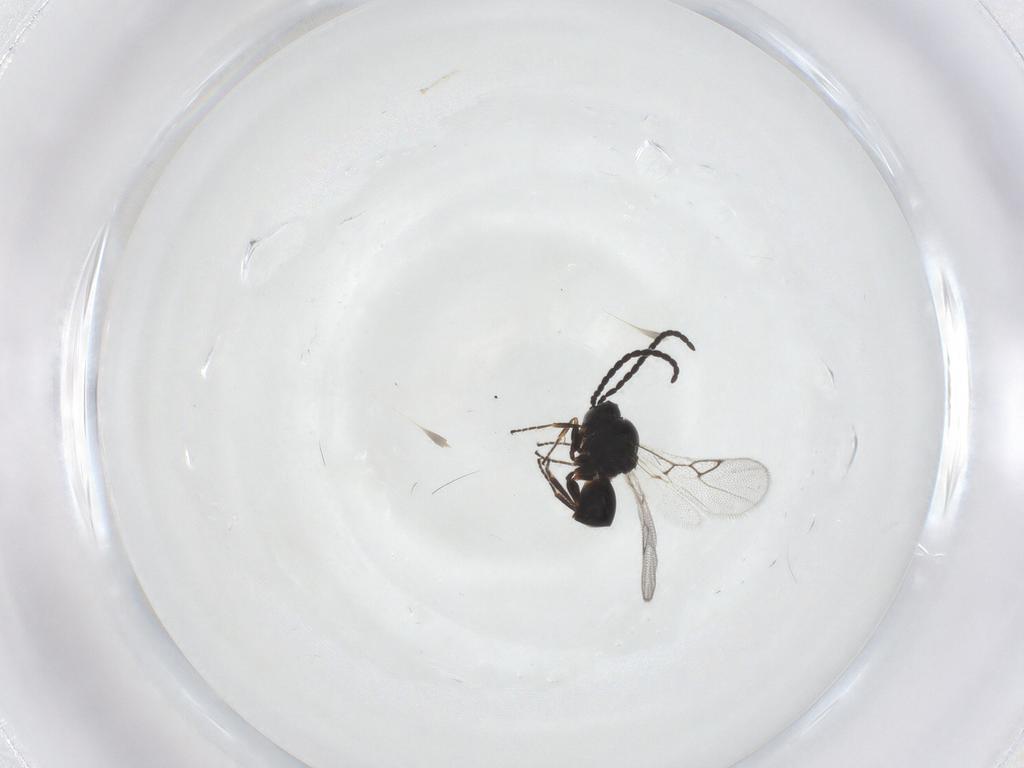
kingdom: Animalia
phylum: Arthropoda
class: Insecta
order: Hymenoptera
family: Figitidae
